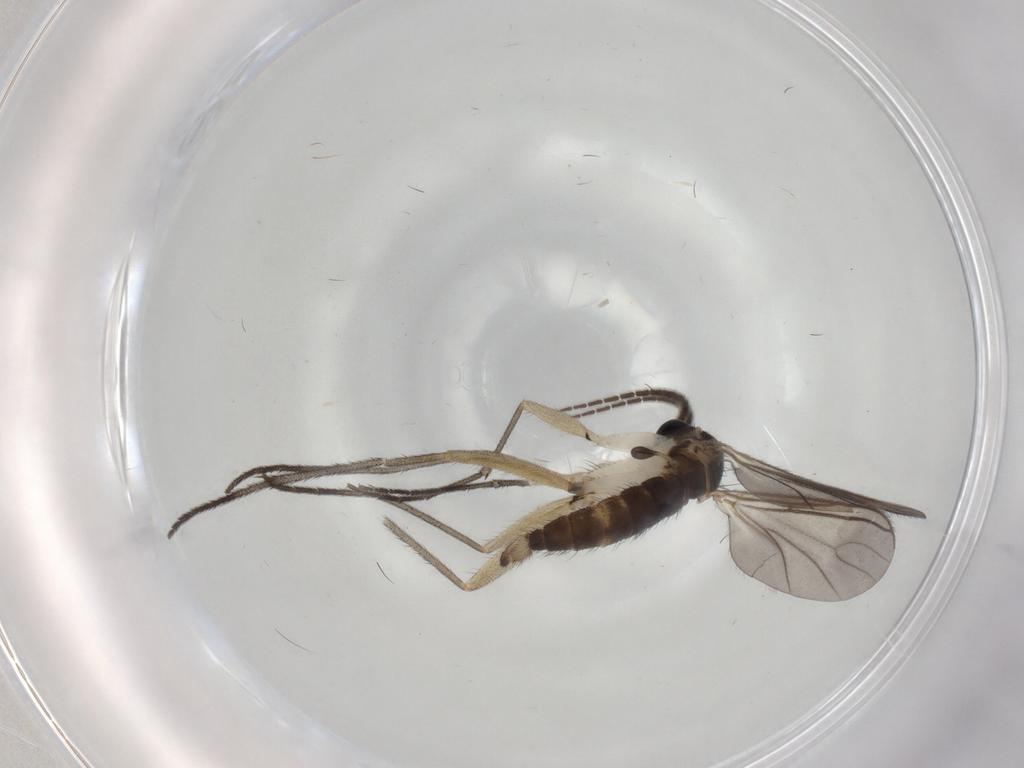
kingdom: Animalia
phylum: Arthropoda
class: Insecta
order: Diptera
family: Sciaridae
